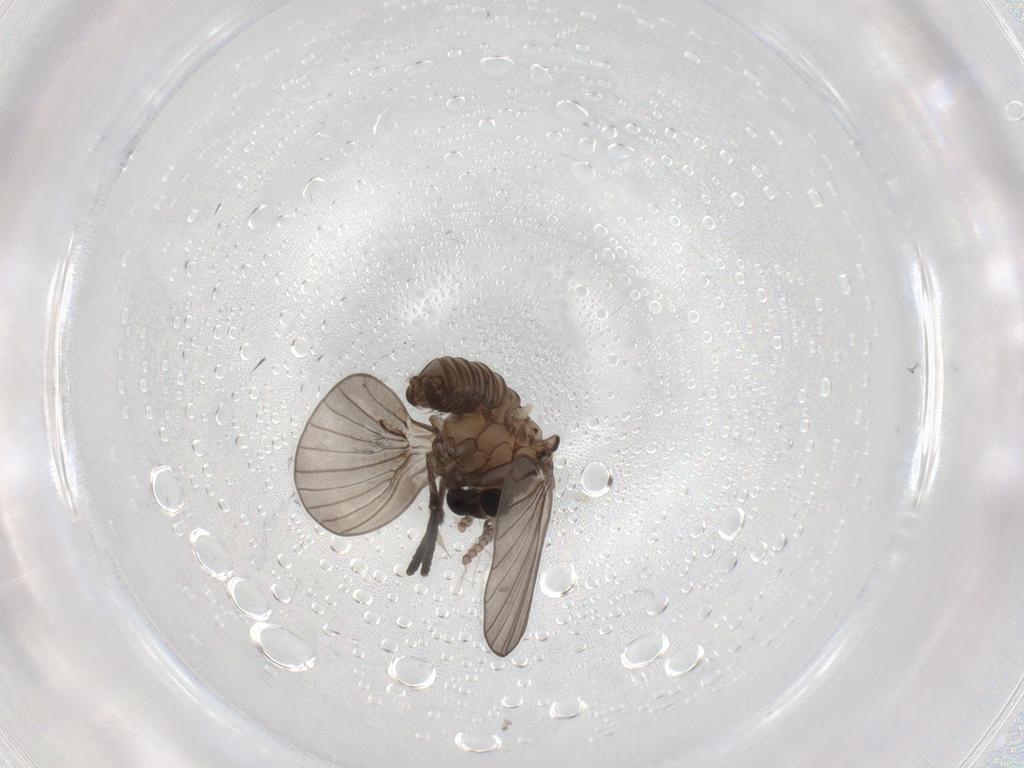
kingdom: Animalia
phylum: Arthropoda
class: Insecta
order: Diptera
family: Psychodidae
